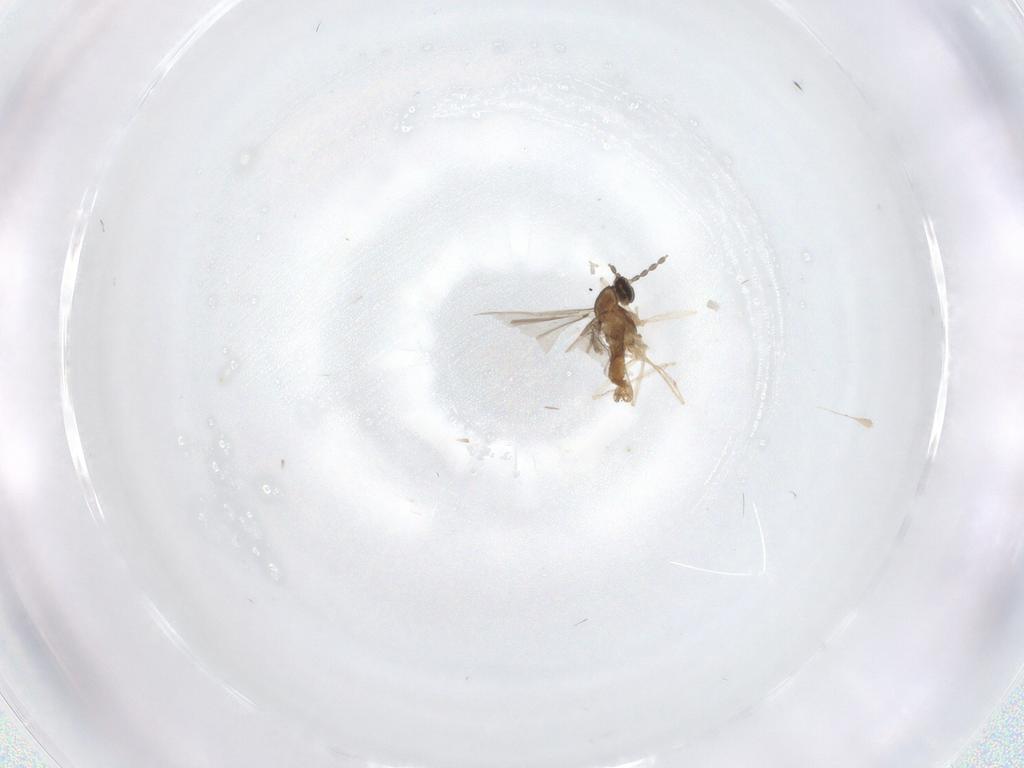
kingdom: Animalia
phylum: Arthropoda
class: Insecta
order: Diptera
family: Cecidomyiidae
